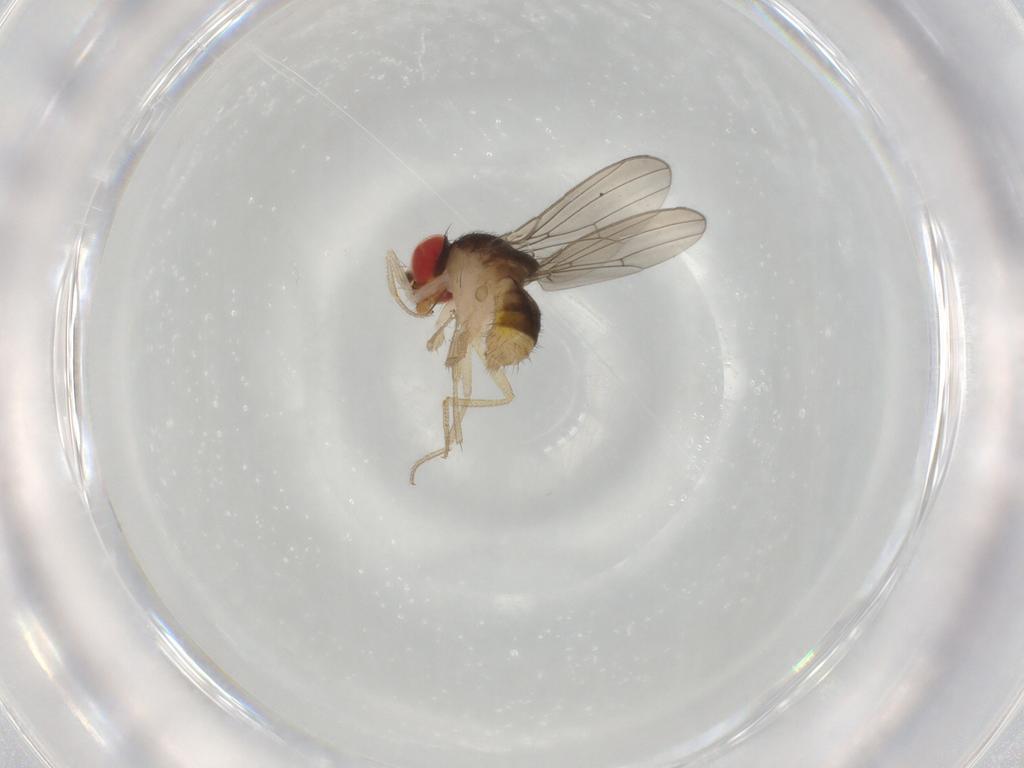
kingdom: Animalia
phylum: Arthropoda
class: Insecta
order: Diptera
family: Drosophilidae
